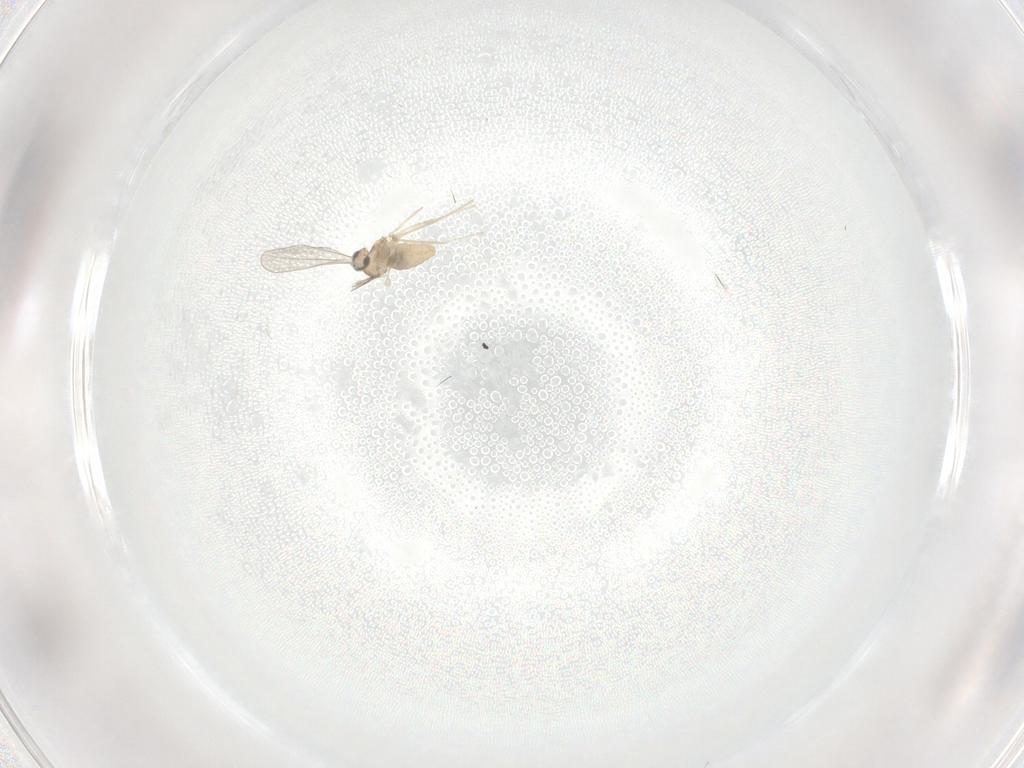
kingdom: Animalia
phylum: Arthropoda
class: Insecta
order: Diptera
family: Cecidomyiidae
